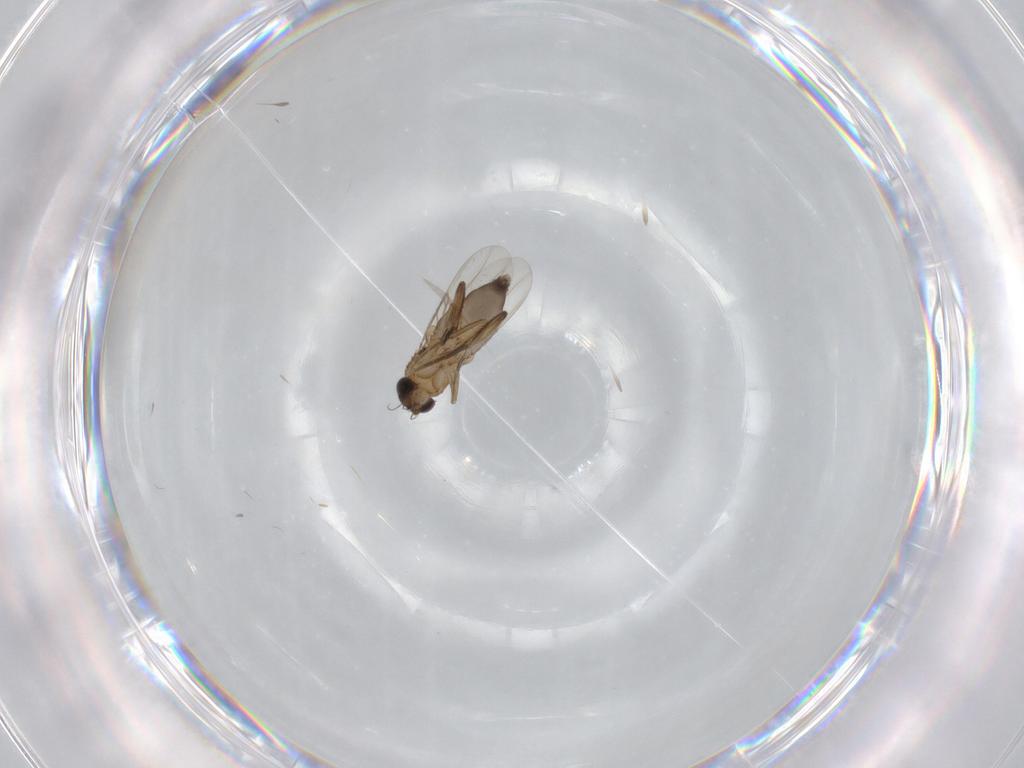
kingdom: Animalia
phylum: Arthropoda
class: Insecta
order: Diptera
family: Phoridae
